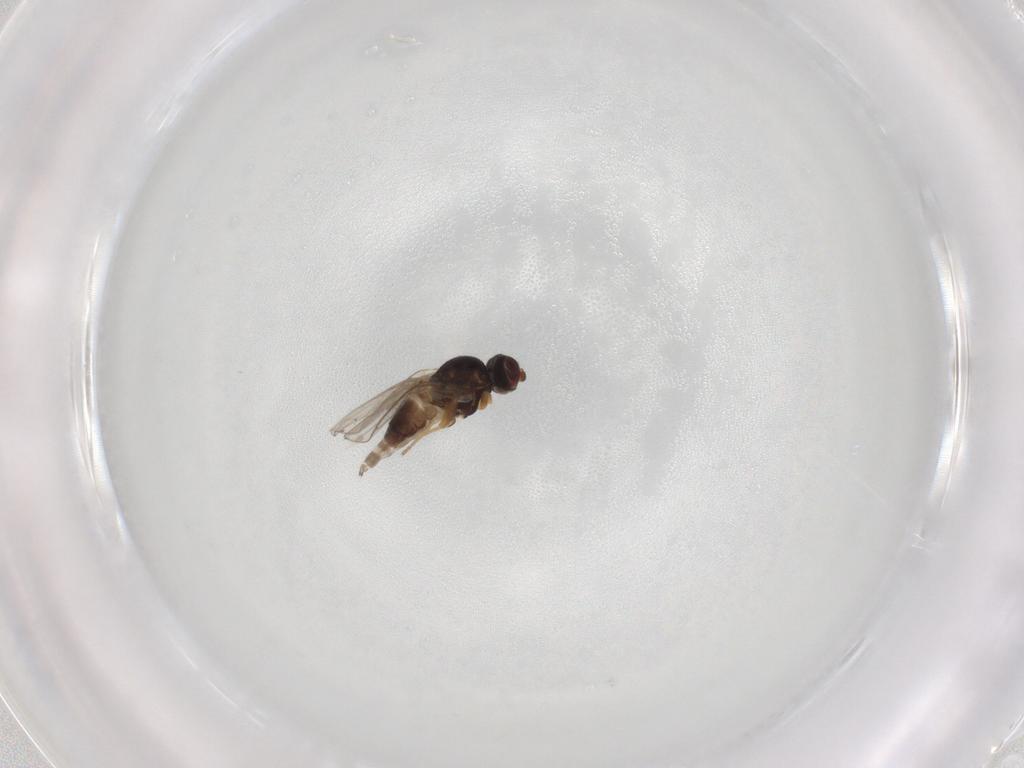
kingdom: Animalia
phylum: Arthropoda
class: Insecta
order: Diptera
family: Chloropidae
